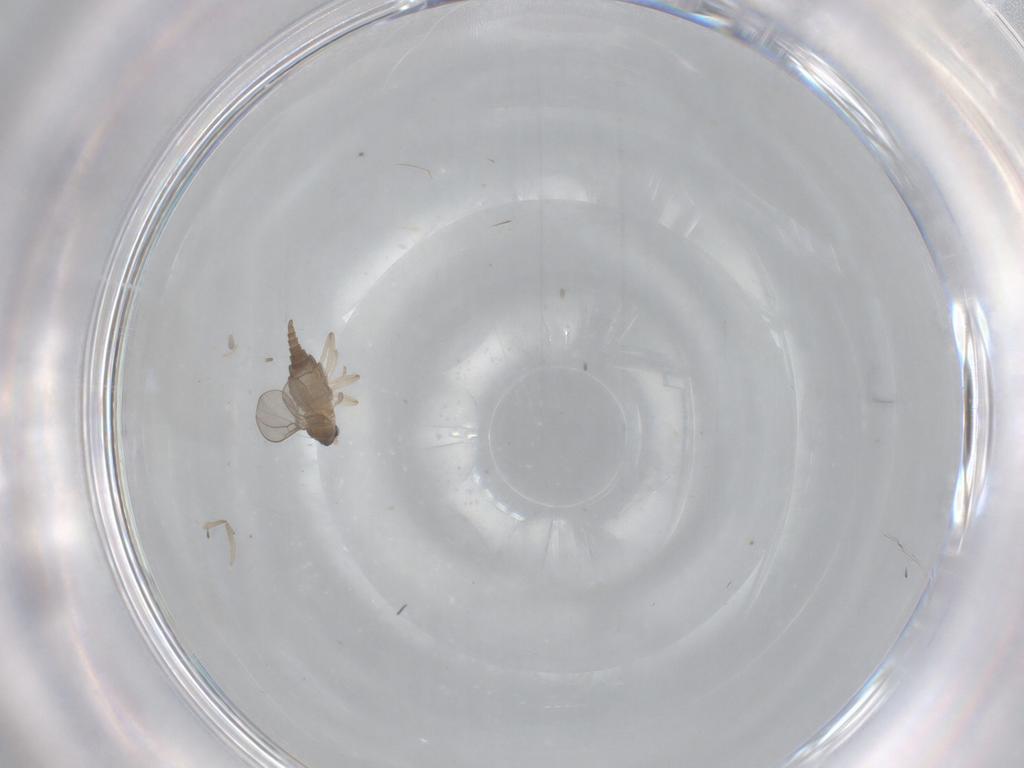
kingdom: Animalia
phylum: Arthropoda
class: Insecta
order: Diptera
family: Cecidomyiidae
